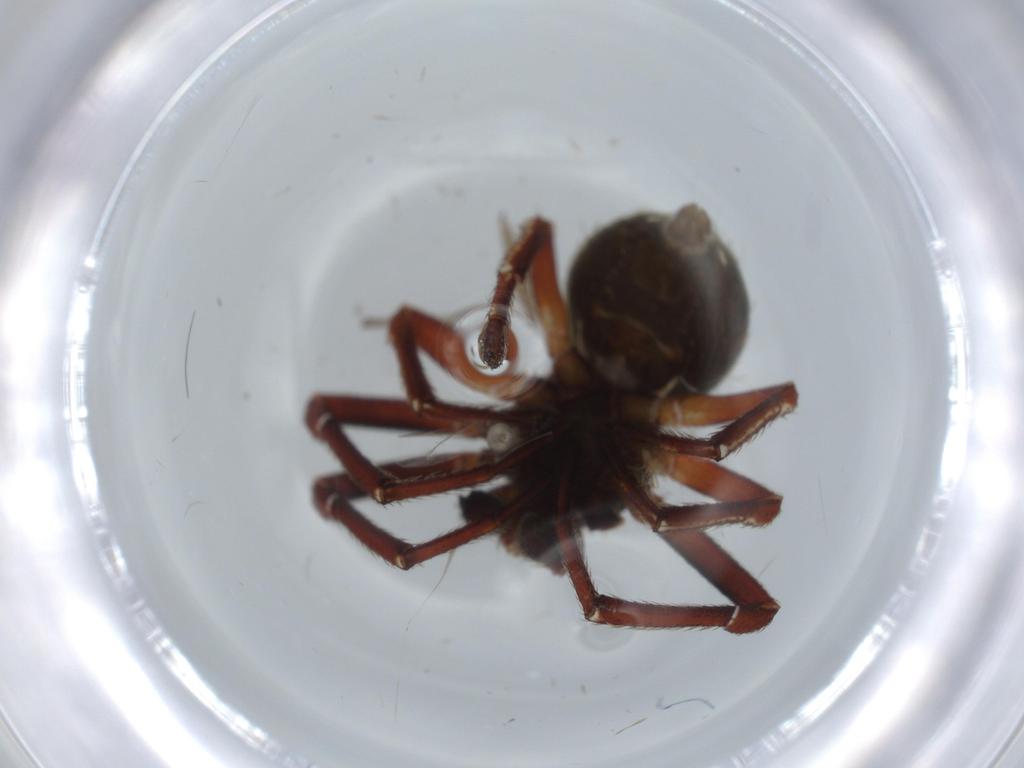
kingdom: Animalia
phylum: Arthropoda
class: Arachnida
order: Araneae
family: Thomisidae
